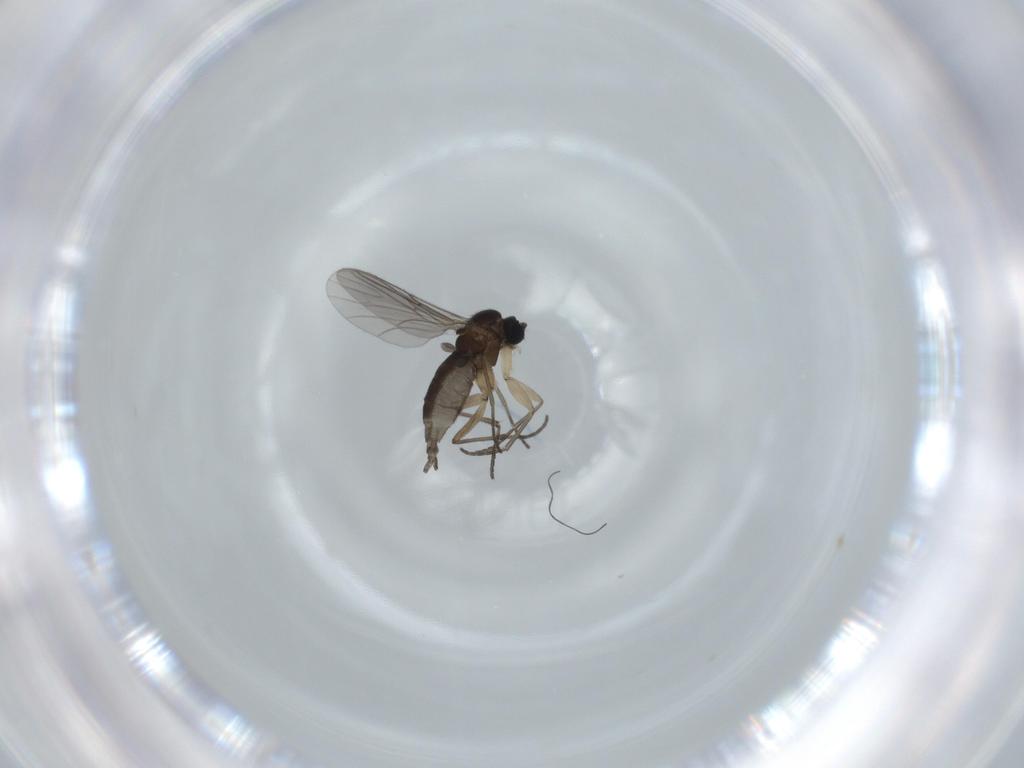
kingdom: Animalia
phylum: Arthropoda
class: Insecta
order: Diptera
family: Sciaridae
